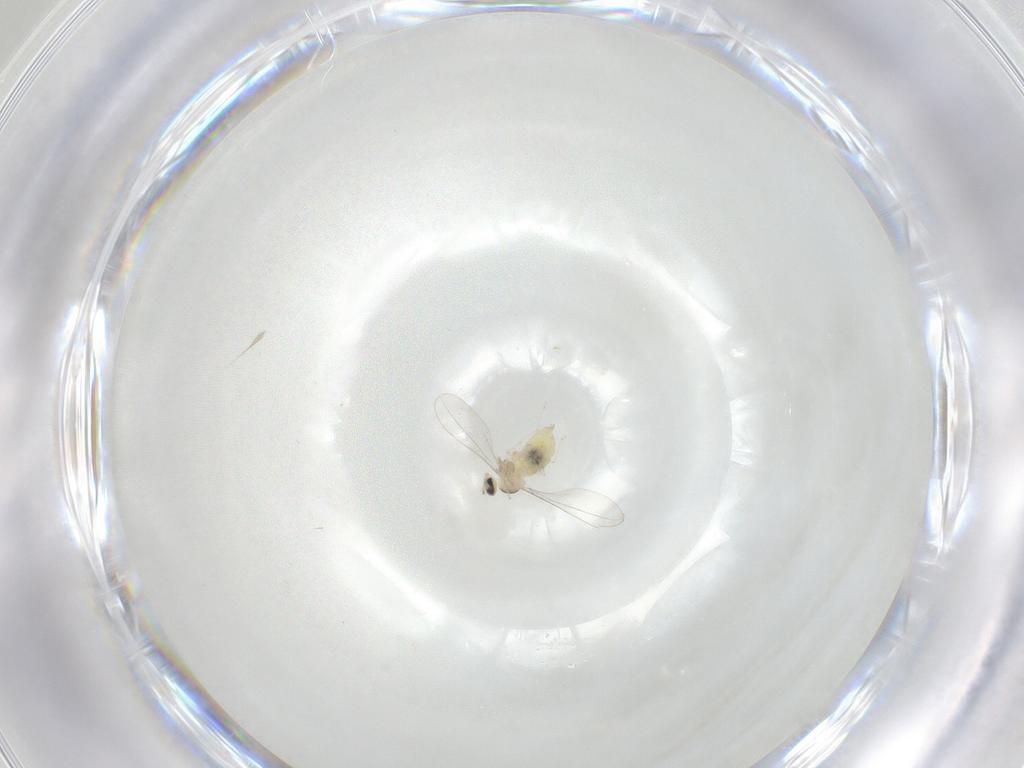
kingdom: Animalia
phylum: Arthropoda
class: Insecta
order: Diptera
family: Cecidomyiidae
